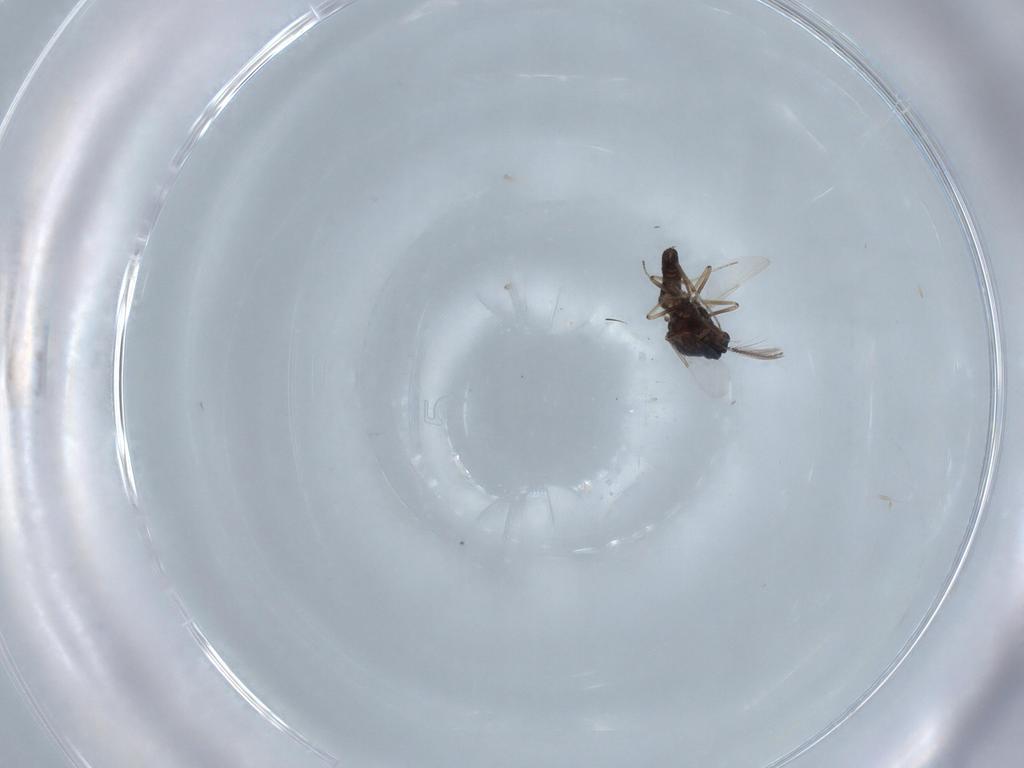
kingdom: Animalia
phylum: Arthropoda
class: Insecta
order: Diptera
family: Ceratopogonidae
